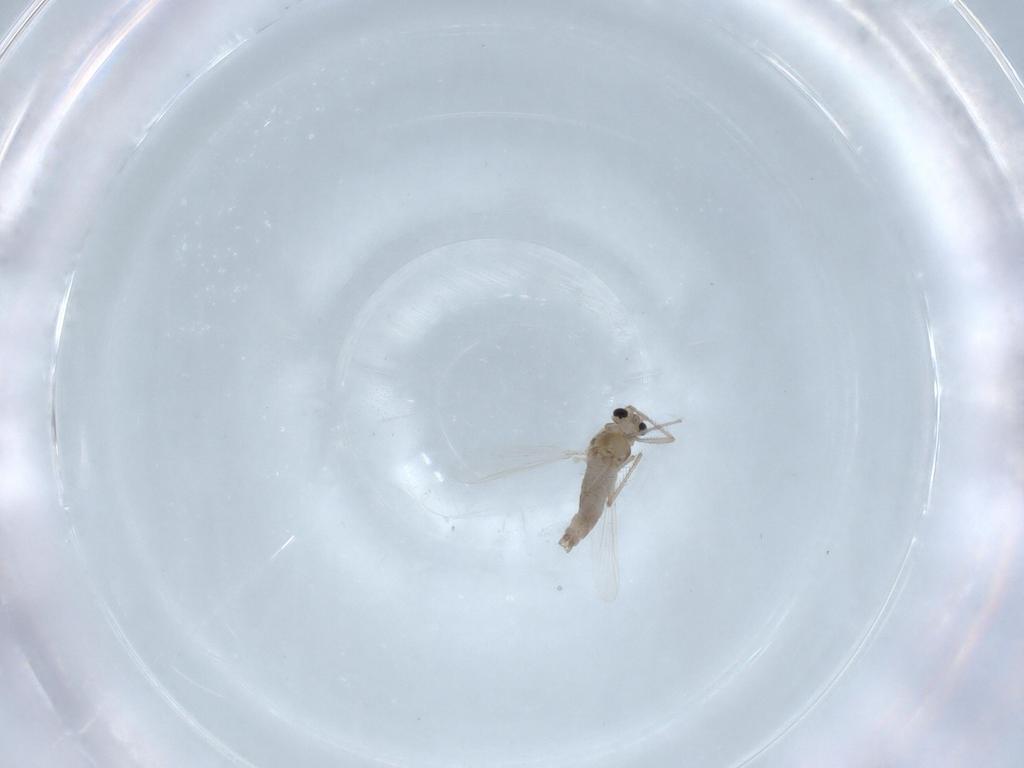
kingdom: Animalia
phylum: Arthropoda
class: Insecta
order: Diptera
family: Chironomidae
